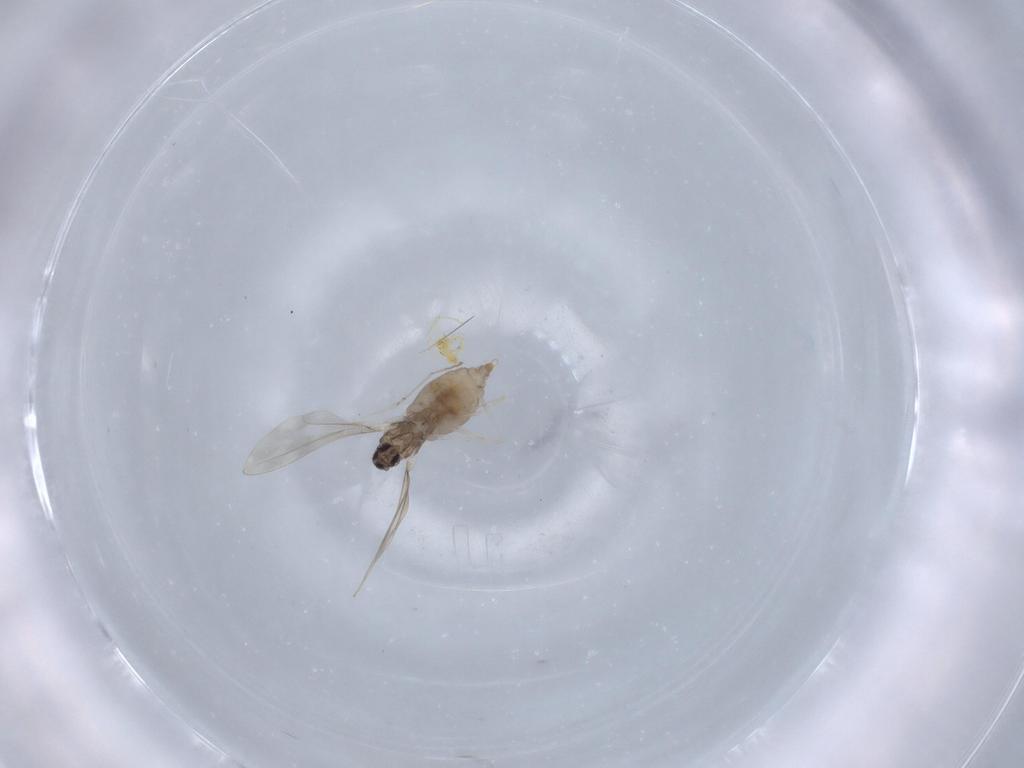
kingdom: Animalia
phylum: Arthropoda
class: Insecta
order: Diptera
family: Cecidomyiidae
